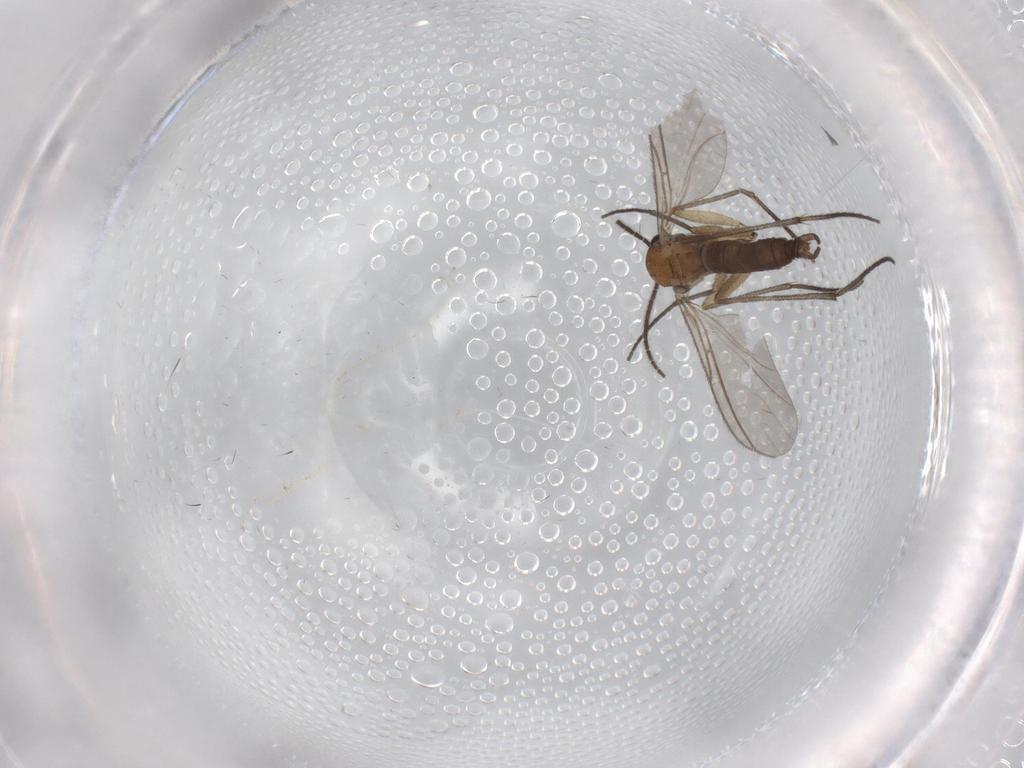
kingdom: Animalia
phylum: Arthropoda
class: Insecta
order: Diptera
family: Sciaridae
